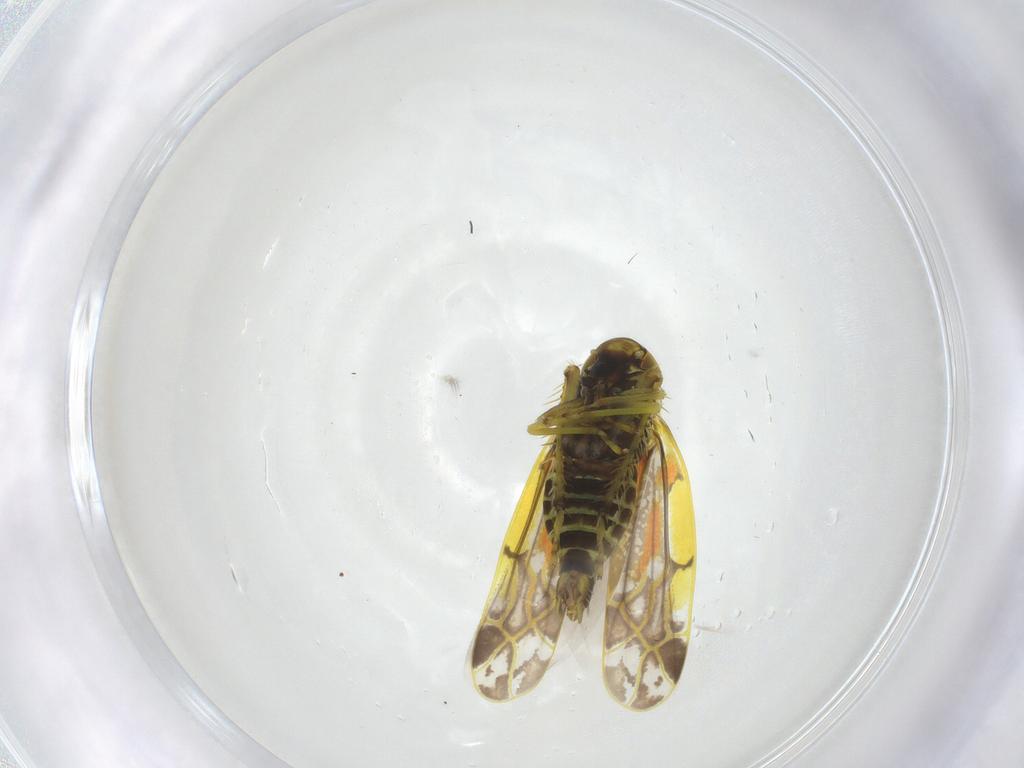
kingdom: Animalia
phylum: Arthropoda
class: Insecta
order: Hemiptera
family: Cicadellidae
